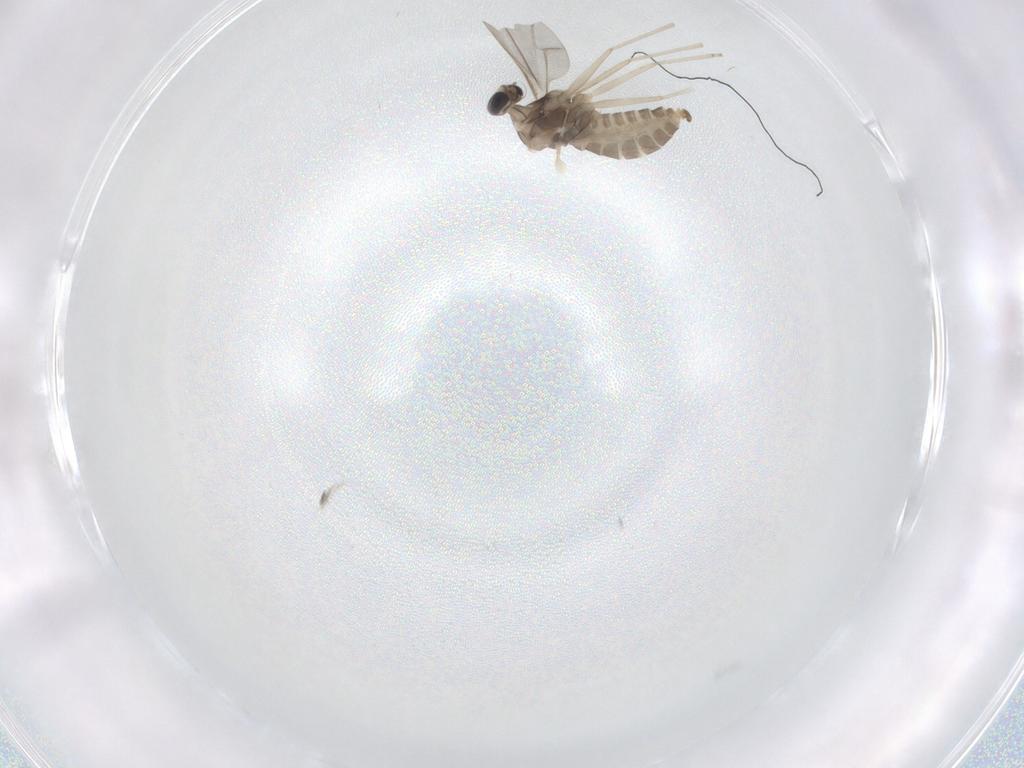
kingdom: Animalia
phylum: Arthropoda
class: Insecta
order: Diptera
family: Cecidomyiidae
